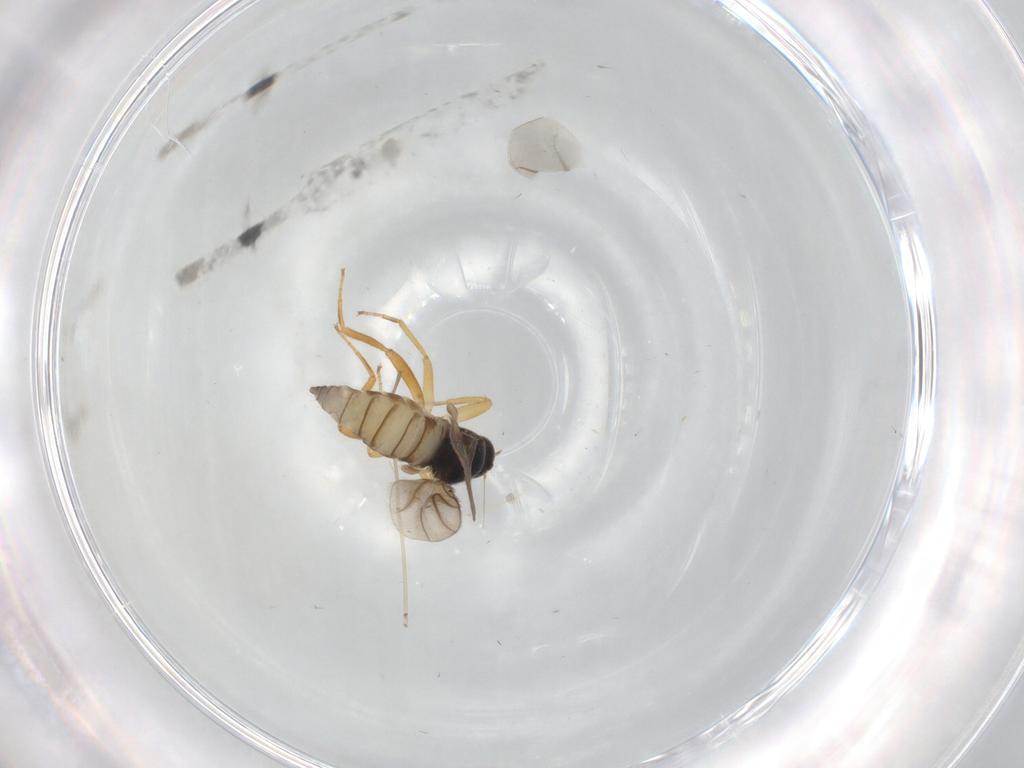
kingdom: Animalia
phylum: Arthropoda
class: Insecta
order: Diptera
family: Hybotidae
